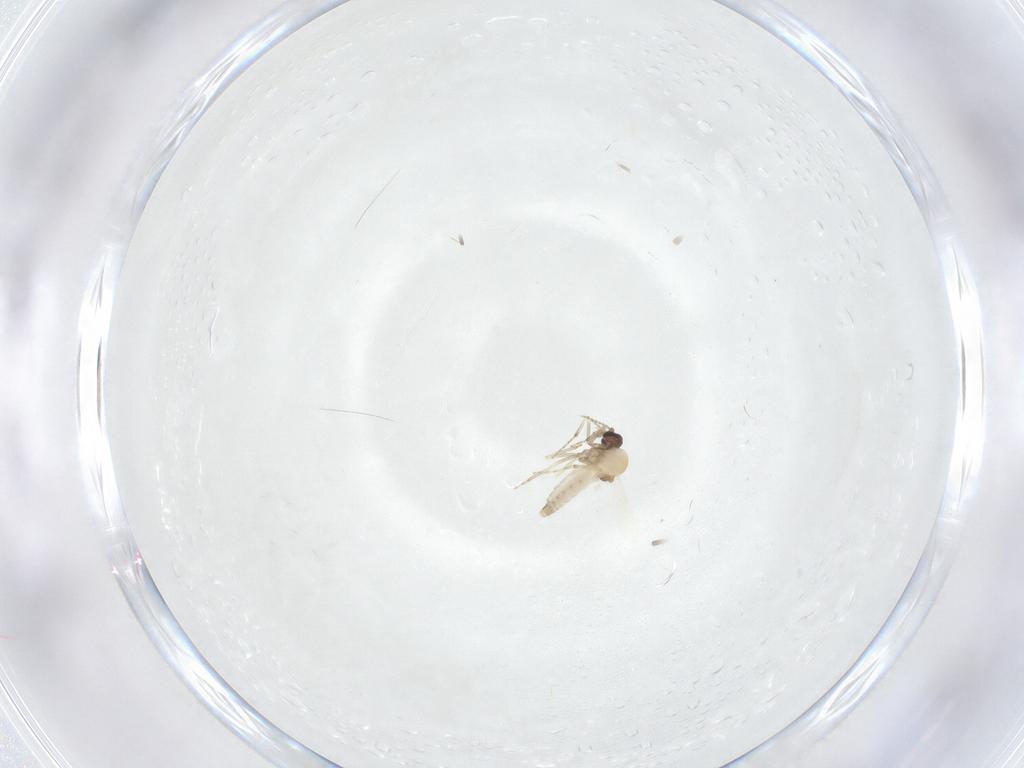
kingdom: Animalia
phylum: Arthropoda
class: Insecta
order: Diptera
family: Ceratopogonidae
